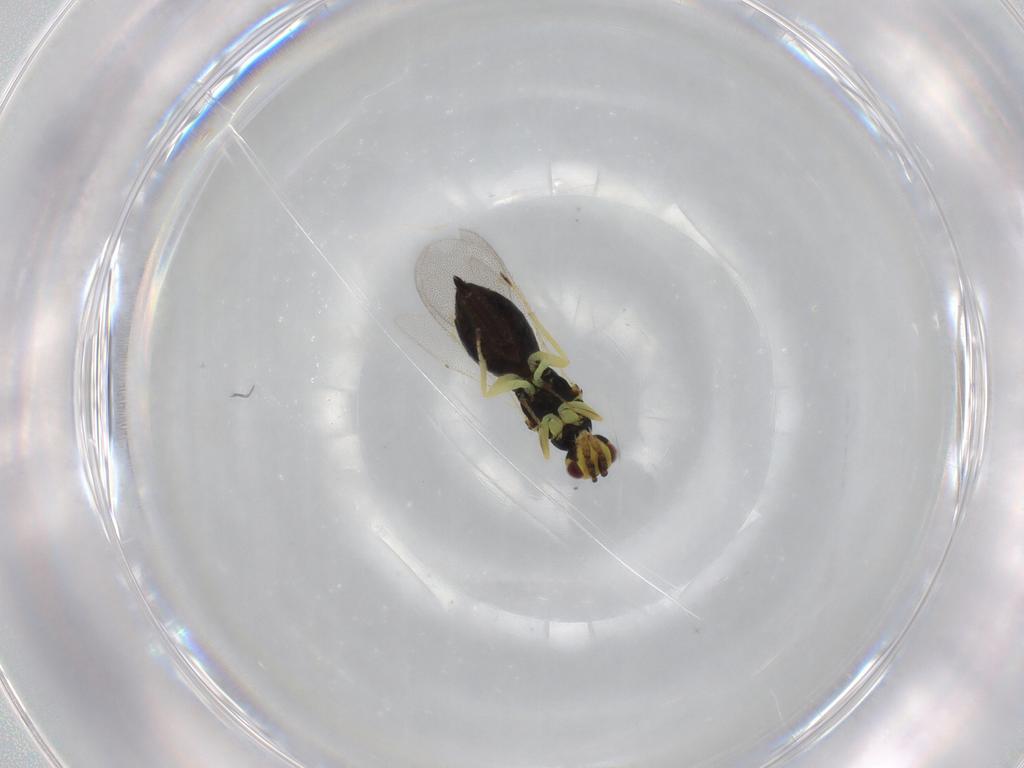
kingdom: Animalia
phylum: Arthropoda
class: Insecta
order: Hymenoptera
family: Eulophidae
